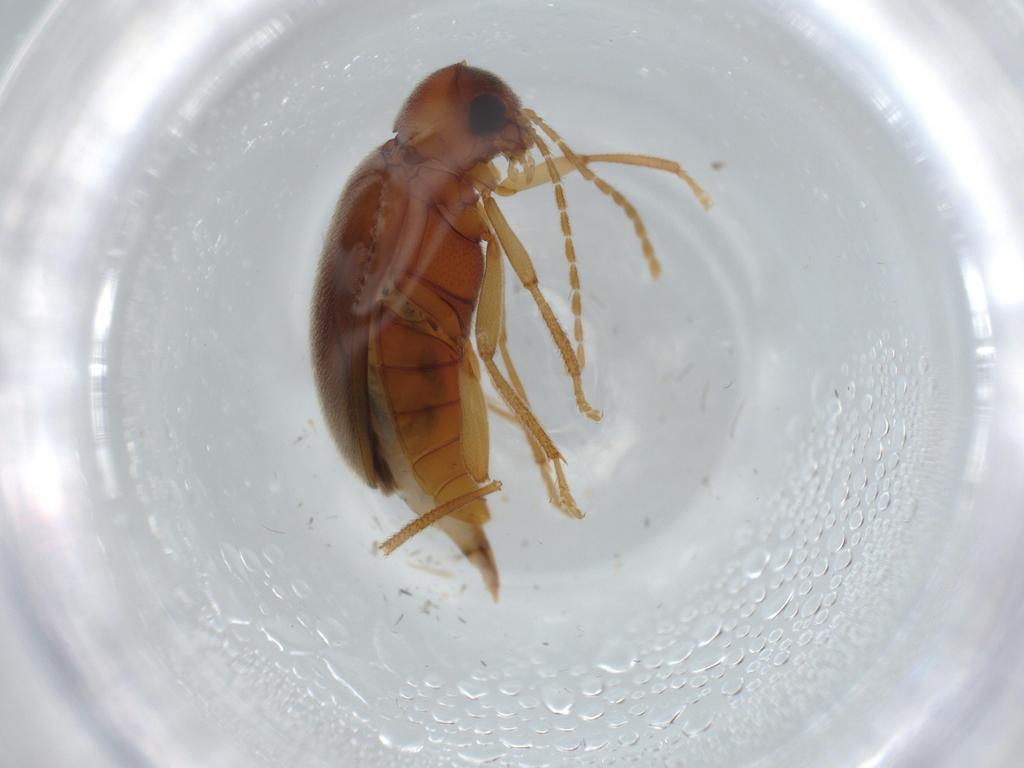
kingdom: Animalia
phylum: Arthropoda
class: Insecta
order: Coleoptera
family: Ptilodactylidae
